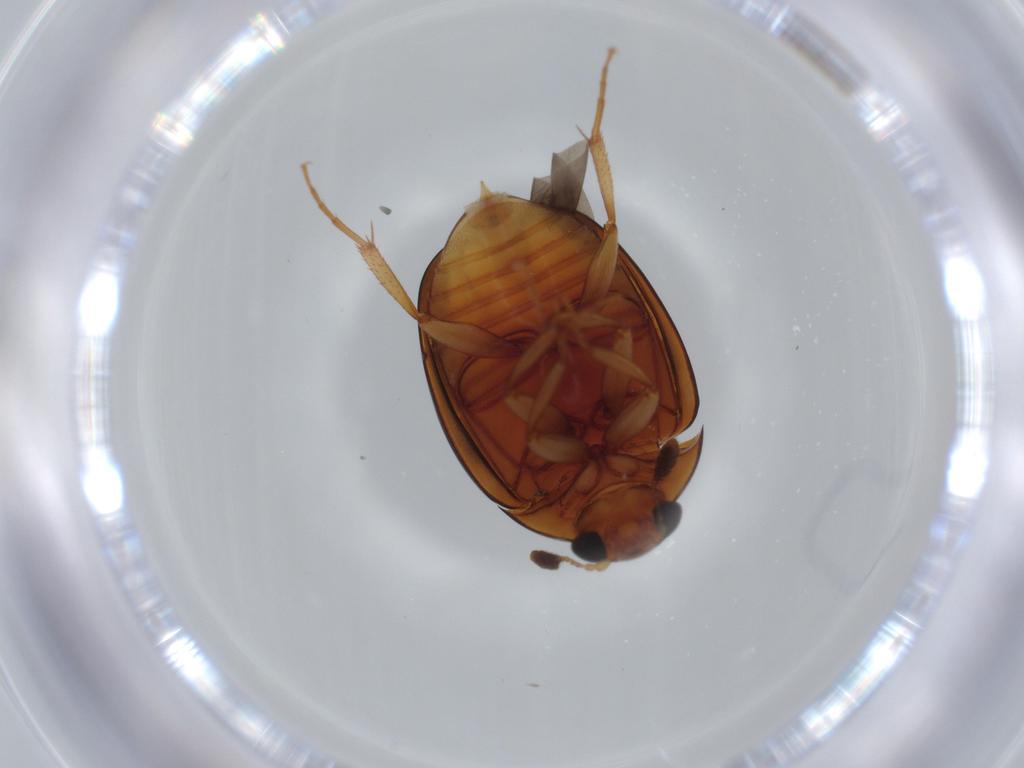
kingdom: Animalia
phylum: Arthropoda
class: Insecta
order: Coleoptera
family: Nitidulidae
